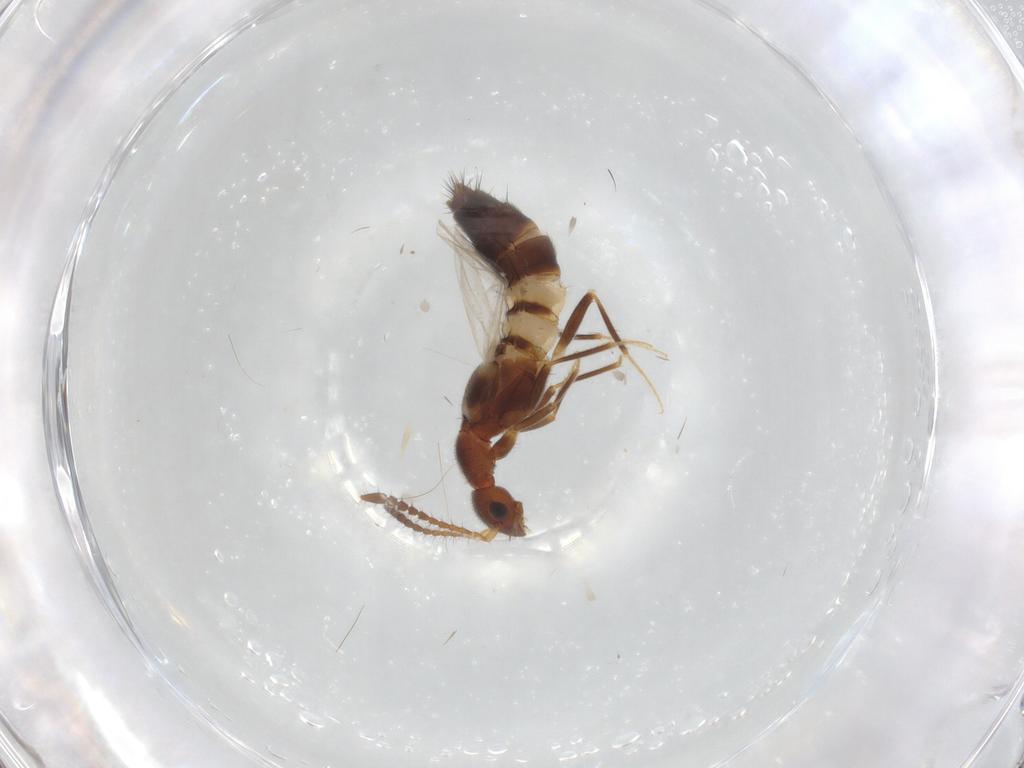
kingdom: Animalia
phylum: Arthropoda
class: Insecta
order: Coleoptera
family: Staphylinidae
